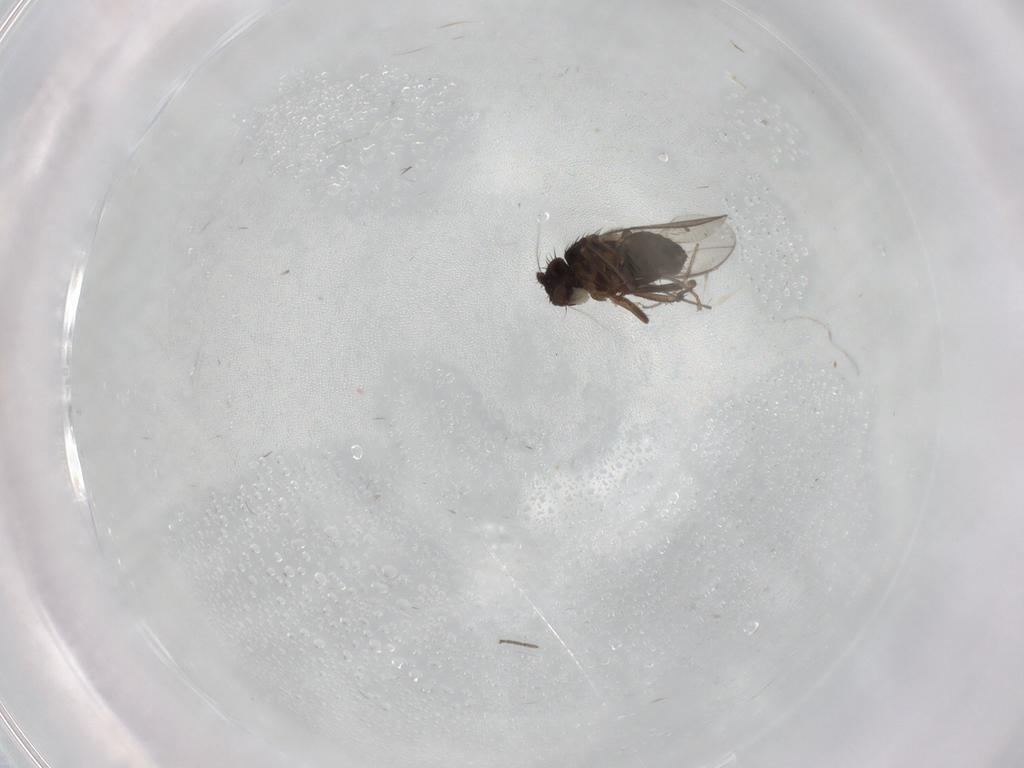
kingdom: Animalia
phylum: Arthropoda
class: Insecta
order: Diptera
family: Sphaeroceridae
